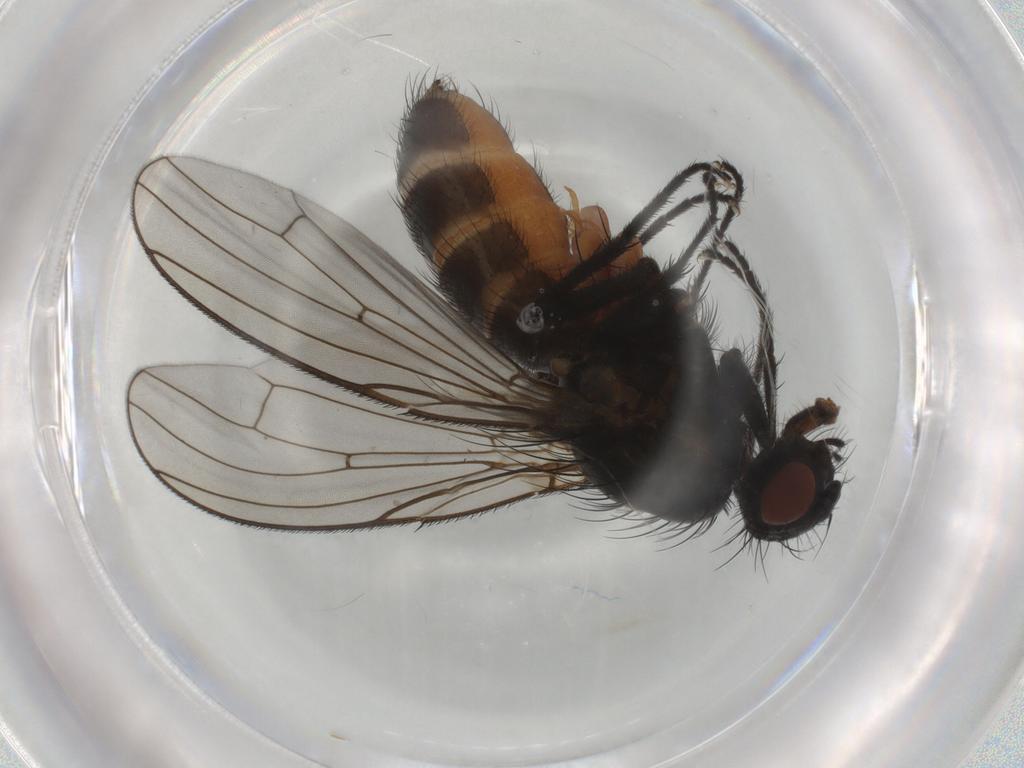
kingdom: Animalia
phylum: Arthropoda
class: Insecta
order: Diptera
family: Anthomyiidae
